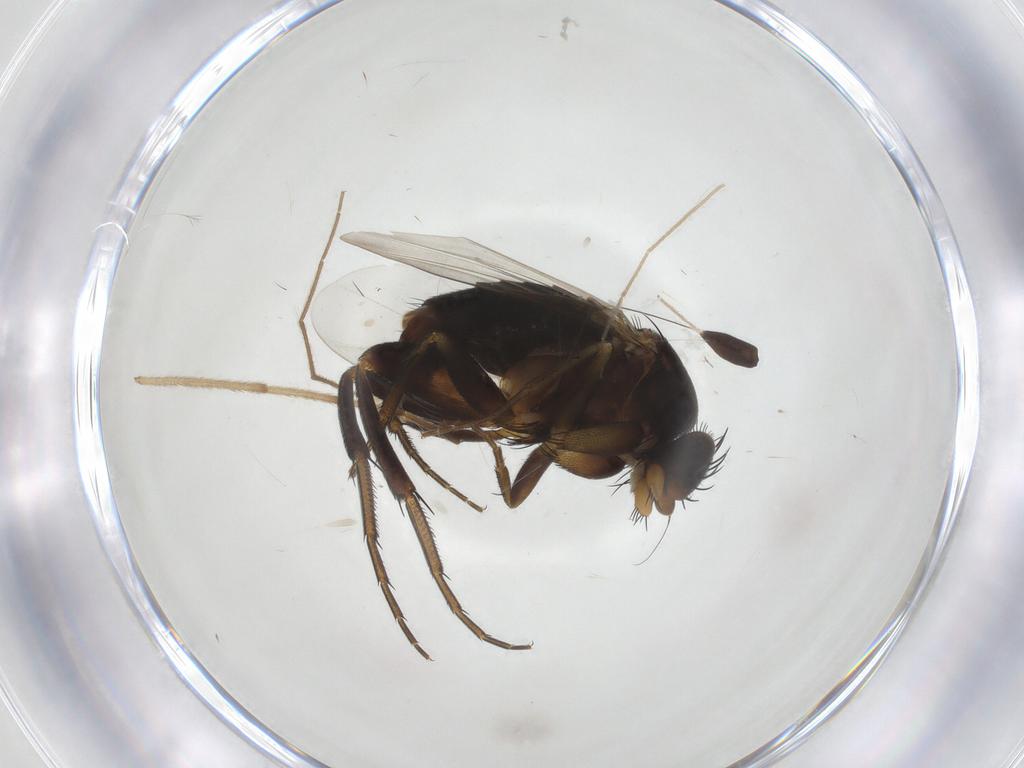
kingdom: Animalia
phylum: Arthropoda
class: Insecta
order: Diptera
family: Phoridae
